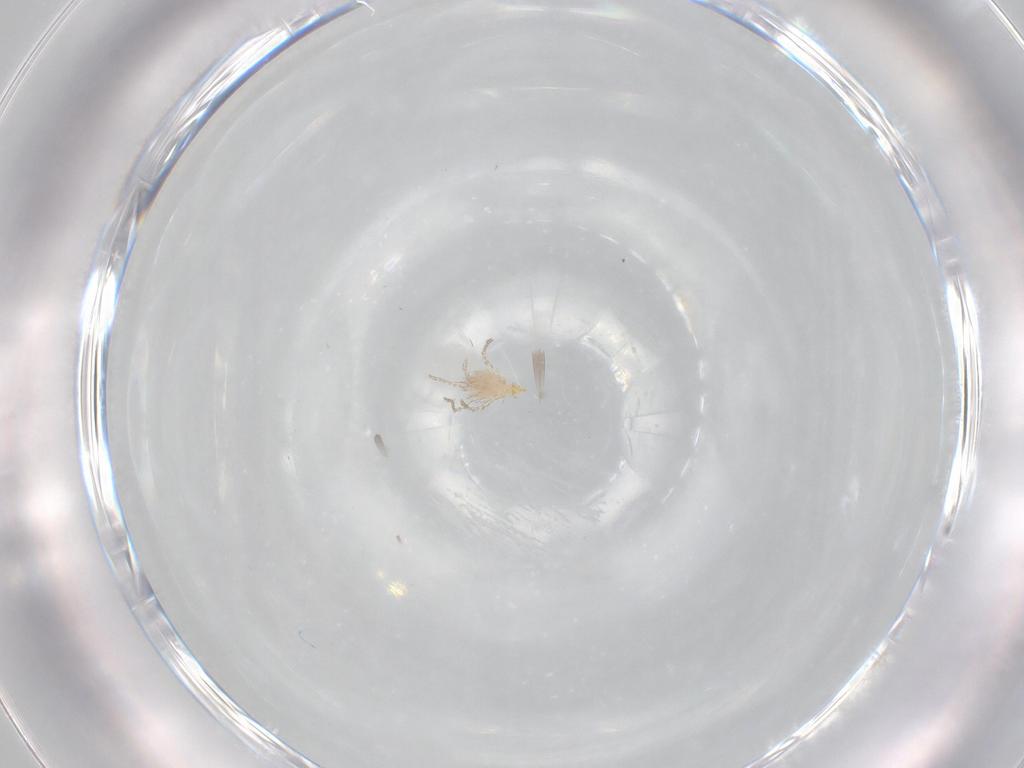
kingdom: Animalia
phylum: Arthropoda
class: Arachnida
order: Trombidiformes
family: Erythraeidae
